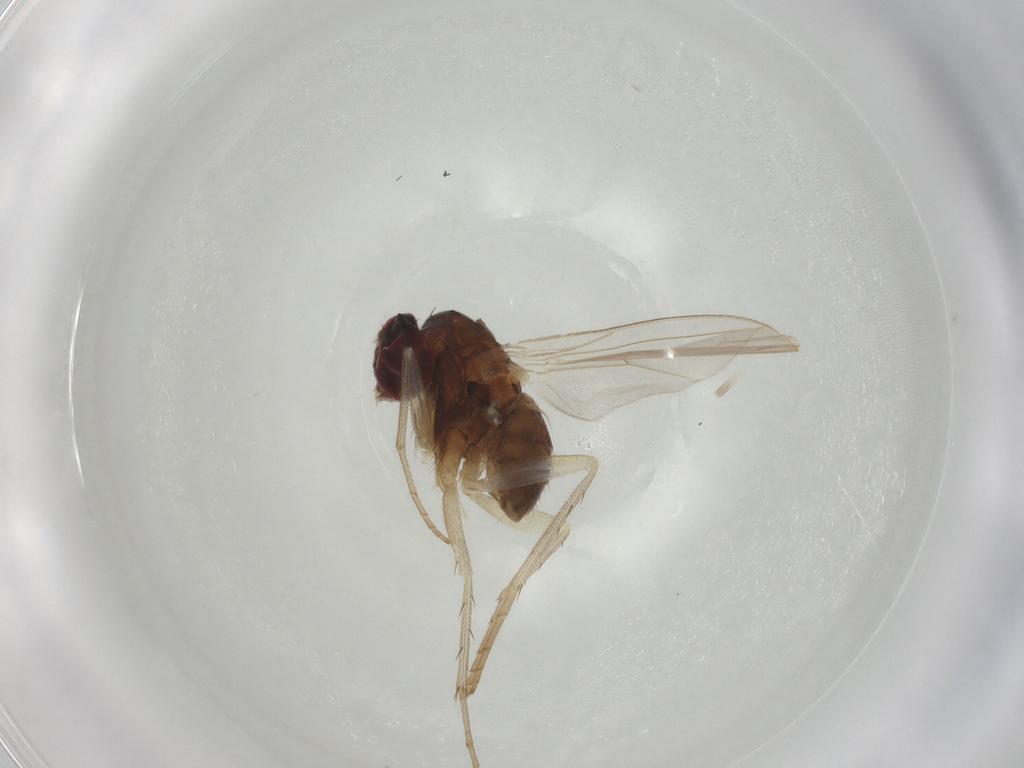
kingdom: Animalia
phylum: Arthropoda
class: Insecta
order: Diptera
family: Dolichopodidae
